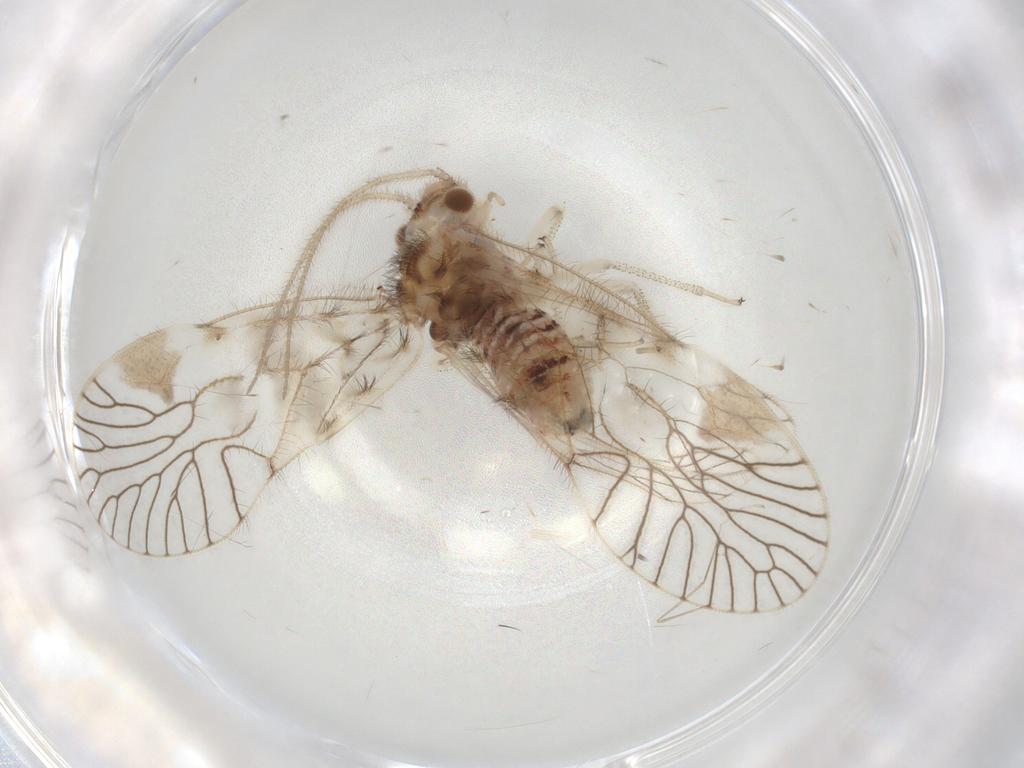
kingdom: Animalia
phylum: Arthropoda
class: Insecta
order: Psocodea
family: Amphipsocidae
